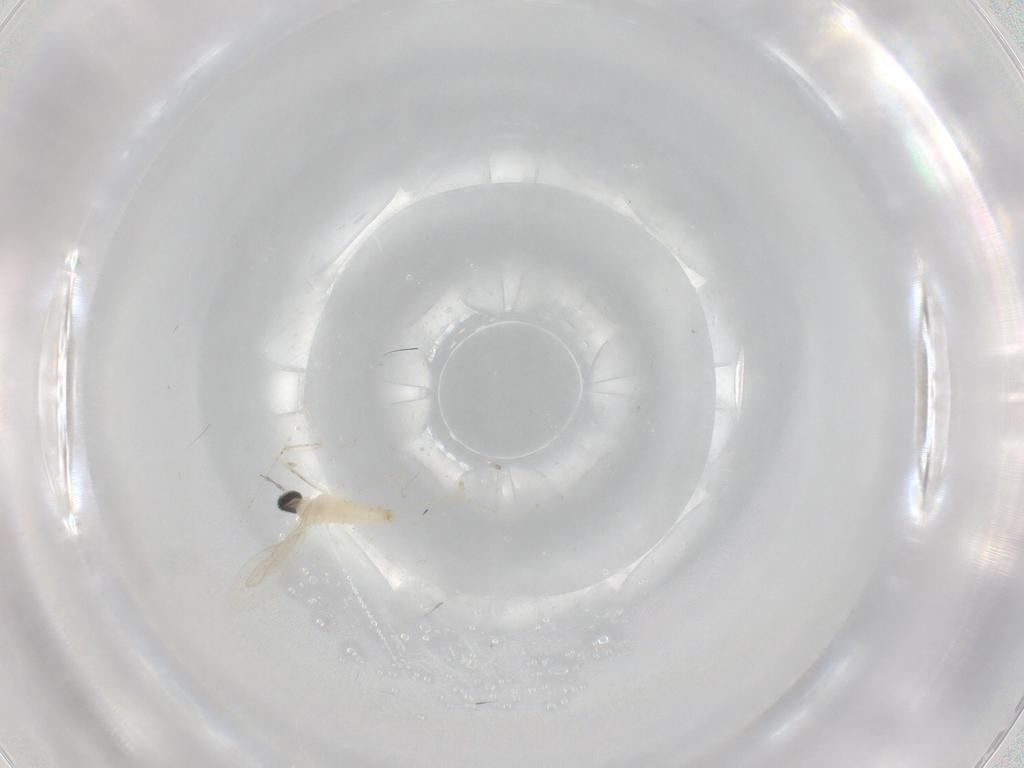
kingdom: Animalia
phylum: Arthropoda
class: Insecta
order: Diptera
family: Cecidomyiidae
